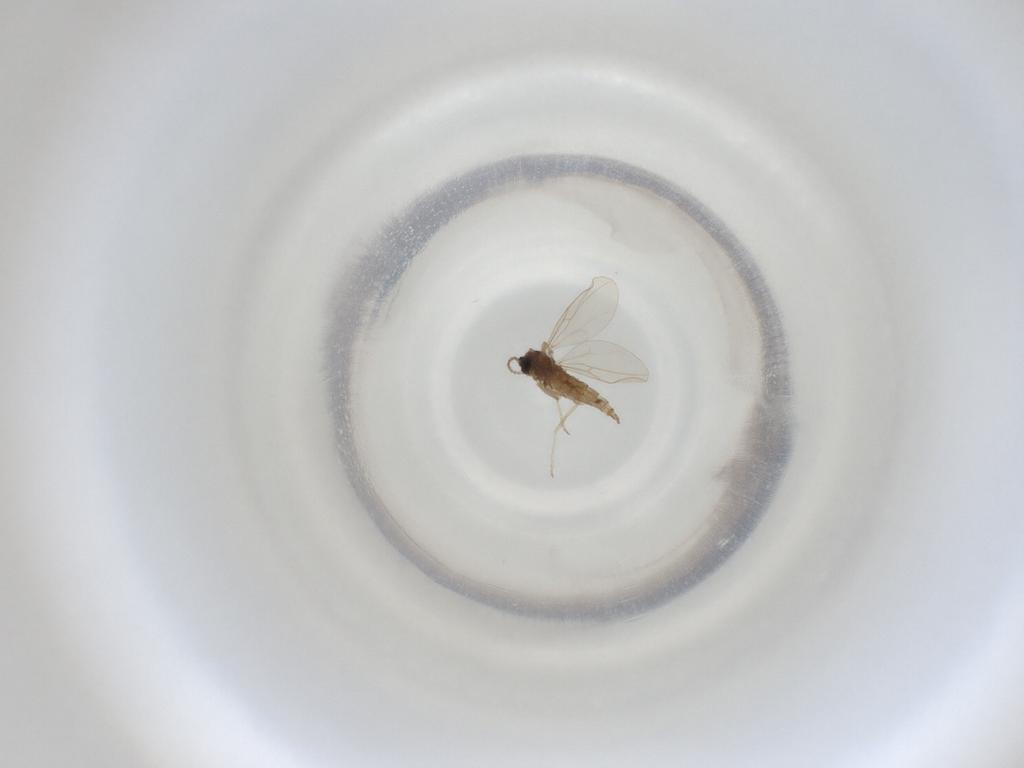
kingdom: Animalia
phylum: Arthropoda
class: Insecta
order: Diptera
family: Cecidomyiidae
